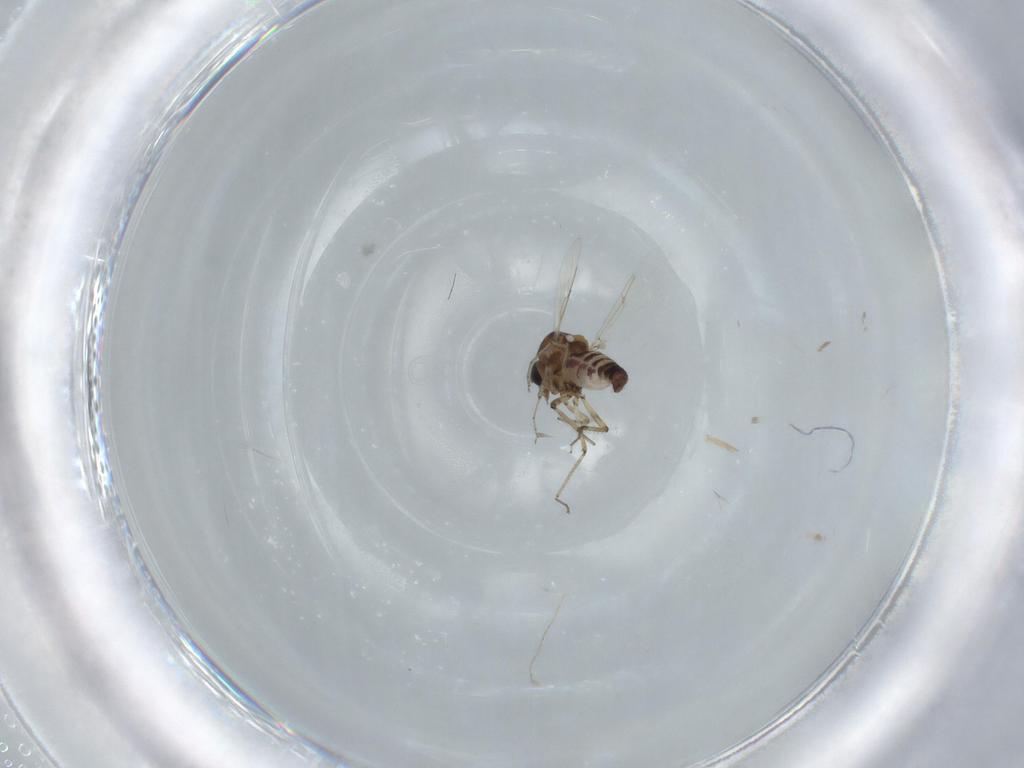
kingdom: Animalia
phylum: Arthropoda
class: Insecta
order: Diptera
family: Ceratopogonidae
